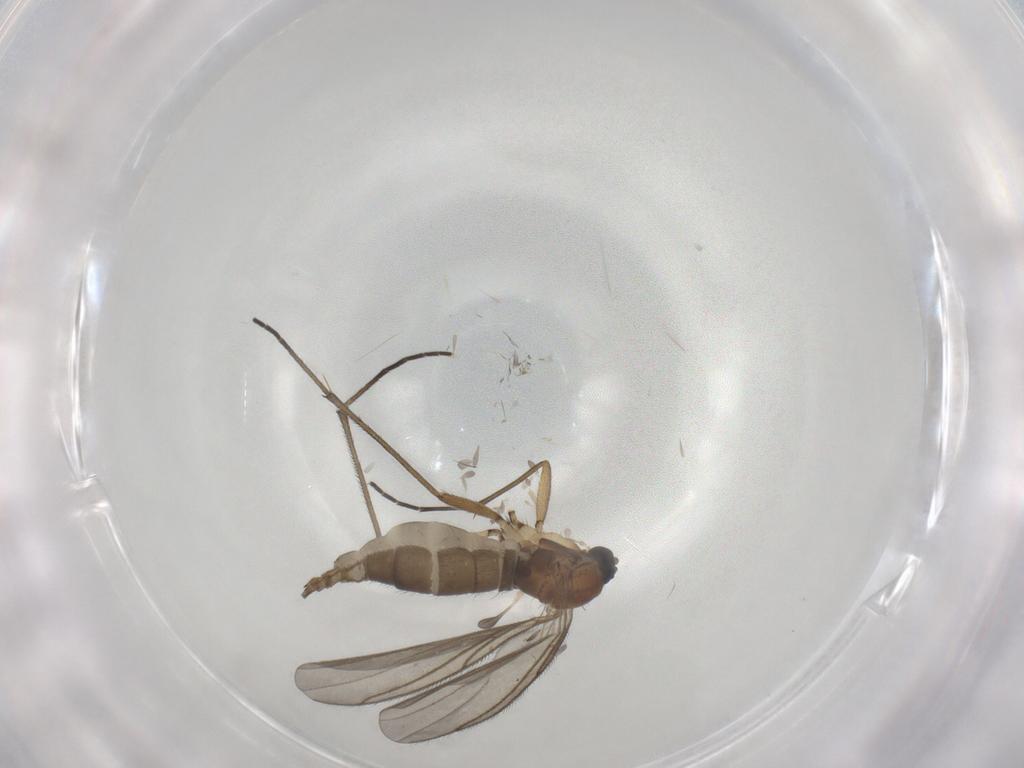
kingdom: Animalia
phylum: Arthropoda
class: Insecta
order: Diptera
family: Sciaridae
